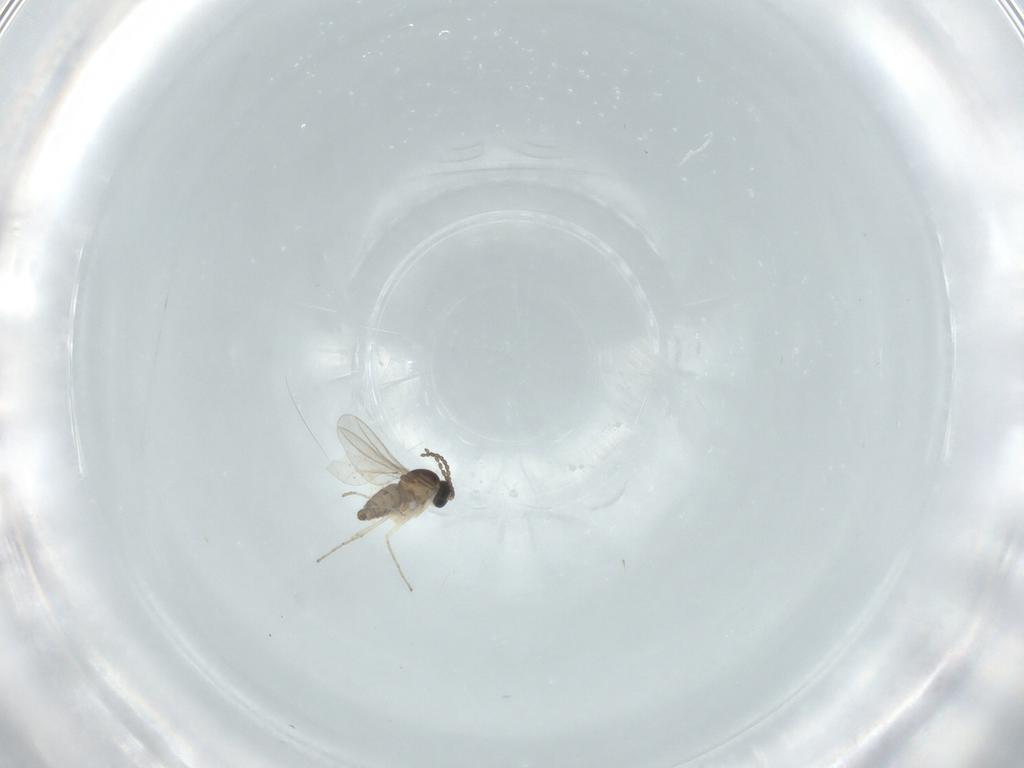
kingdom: Animalia
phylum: Arthropoda
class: Insecta
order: Diptera
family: Cecidomyiidae
